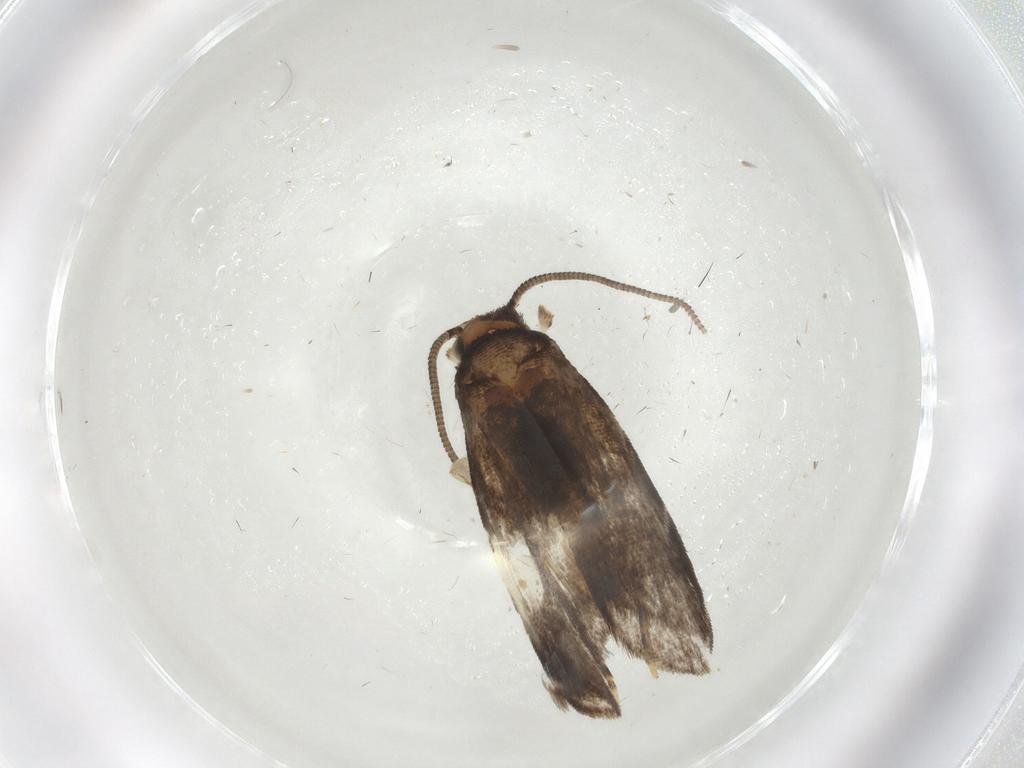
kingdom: Animalia
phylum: Arthropoda
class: Insecta
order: Lepidoptera
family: Dryadaulidae
